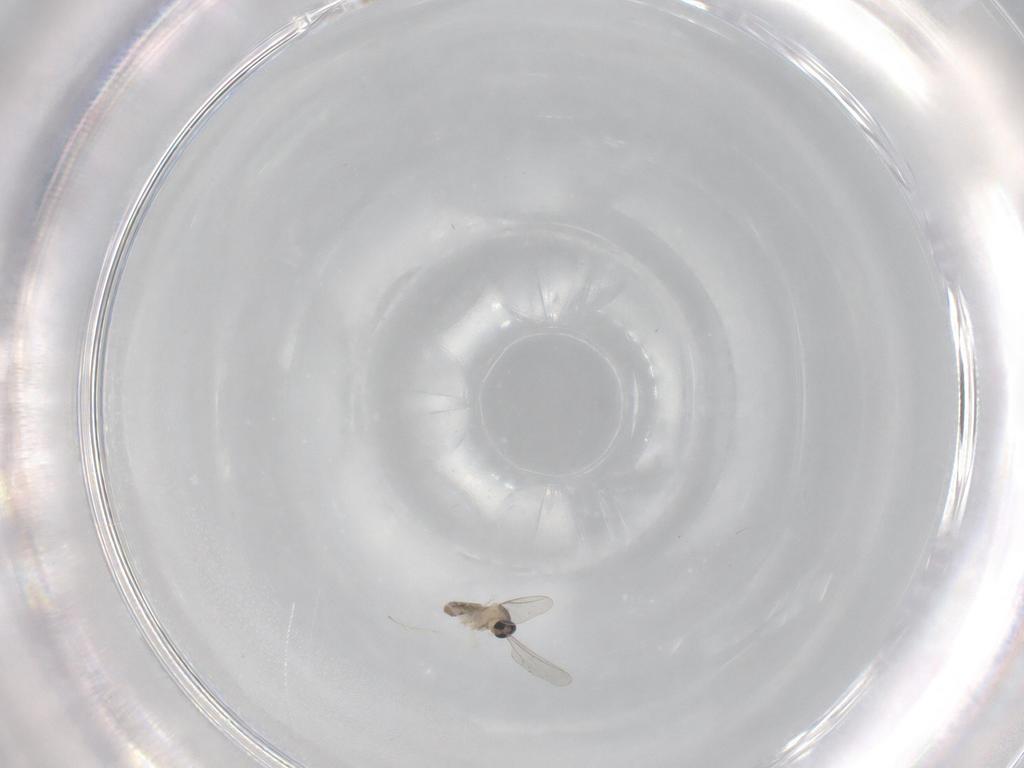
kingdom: Animalia
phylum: Arthropoda
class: Insecta
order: Diptera
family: Cecidomyiidae
